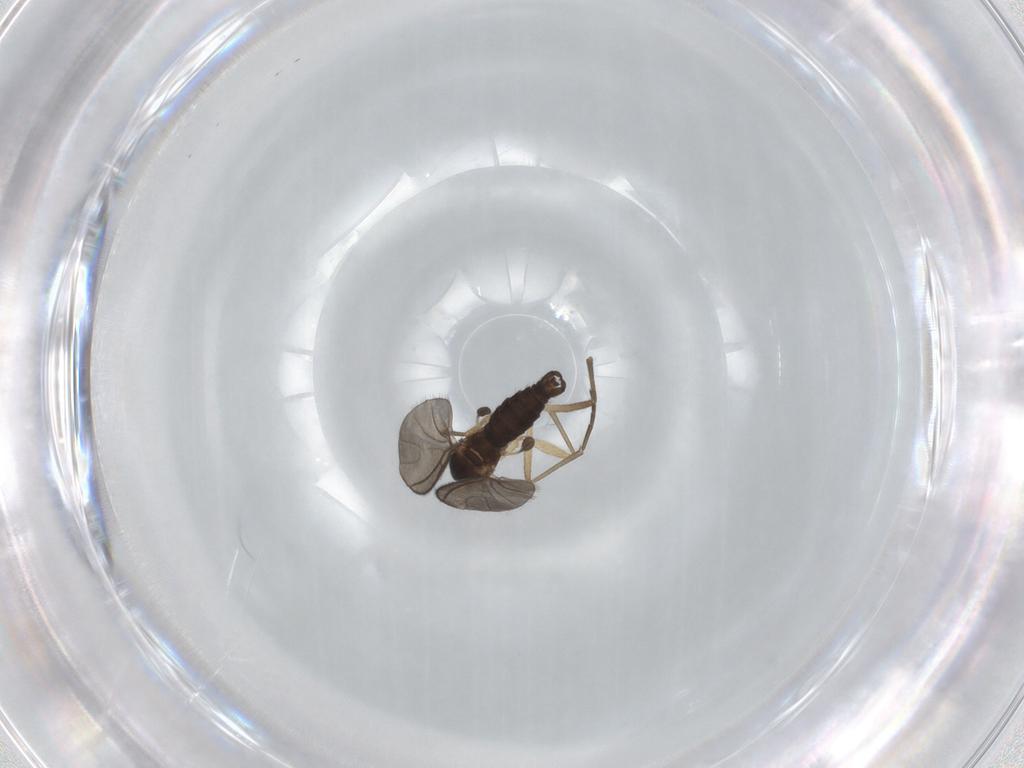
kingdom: Animalia
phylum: Arthropoda
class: Insecta
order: Diptera
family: Sciaridae
